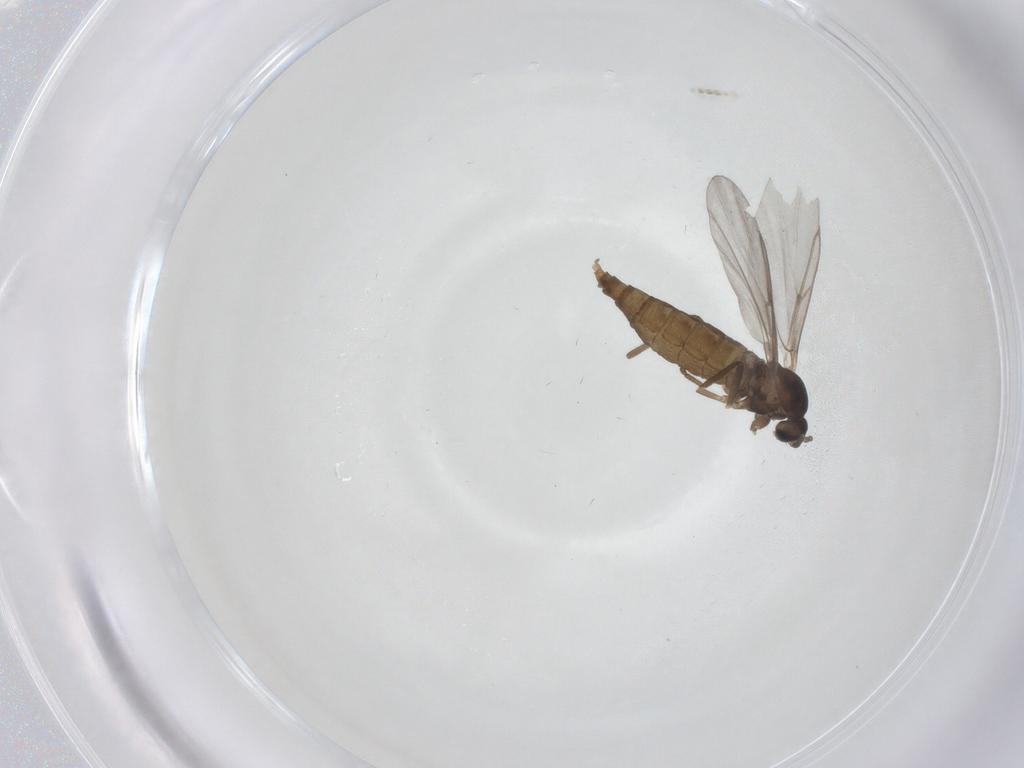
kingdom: Animalia
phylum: Arthropoda
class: Insecta
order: Diptera
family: Cecidomyiidae
